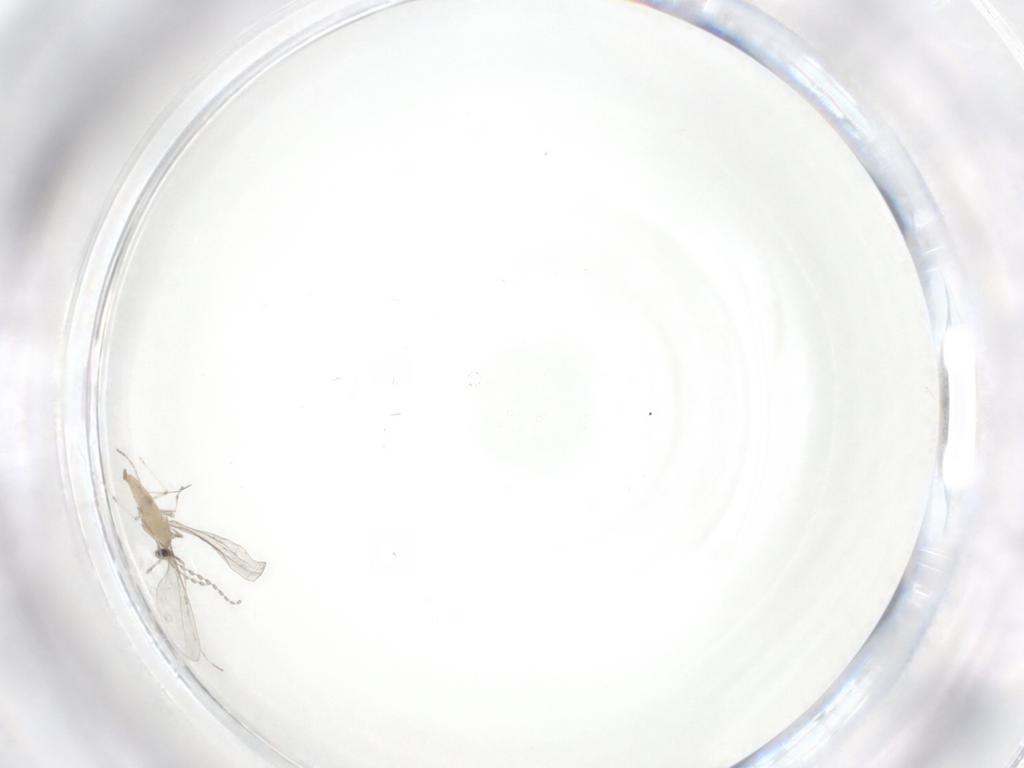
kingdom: Animalia
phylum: Arthropoda
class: Insecta
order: Diptera
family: Cecidomyiidae
